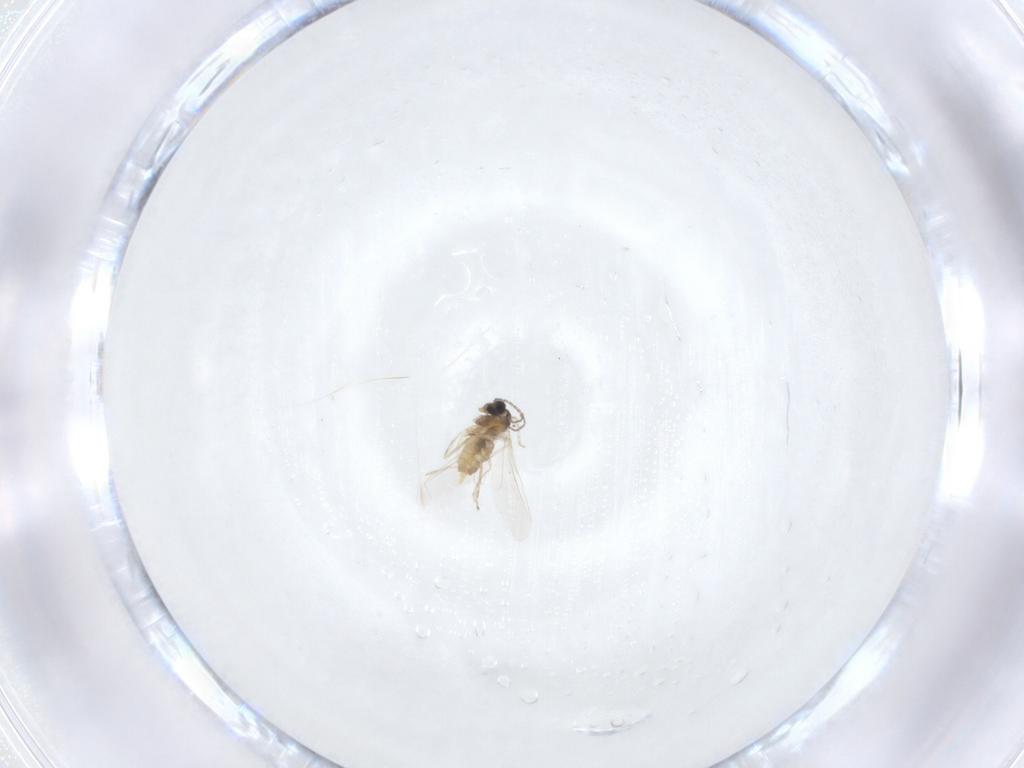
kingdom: Animalia
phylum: Arthropoda
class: Insecta
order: Diptera
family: Cecidomyiidae
